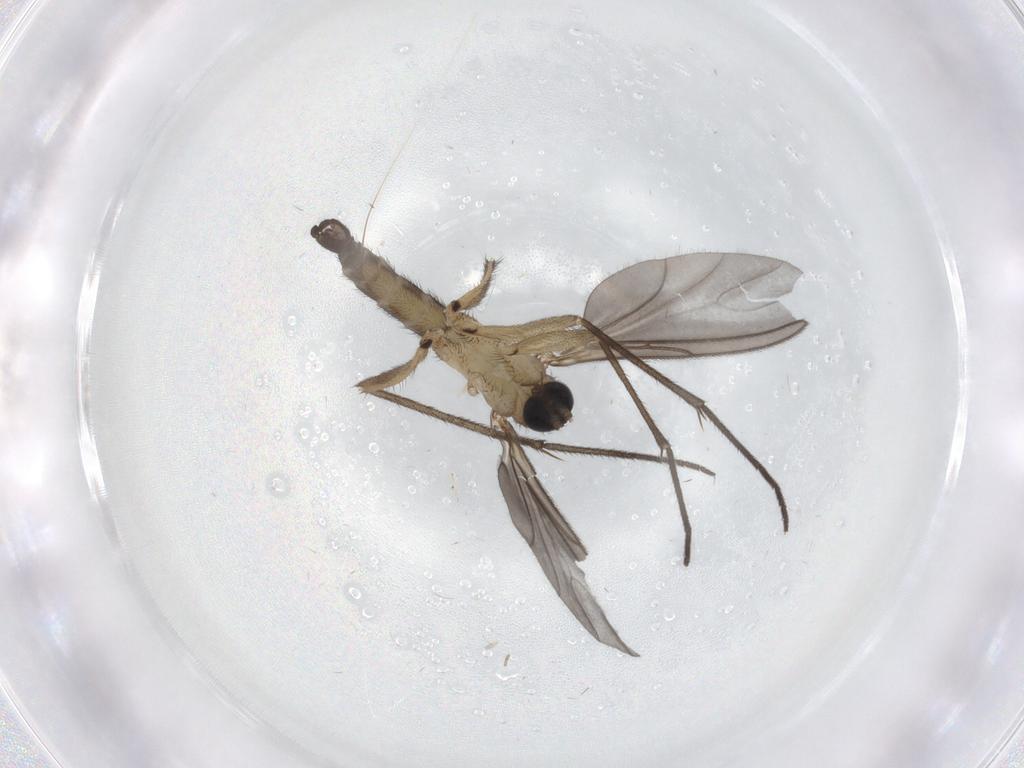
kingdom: Animalia
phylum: Arthropoda
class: Insecta
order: Diptera
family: Sciaridae
